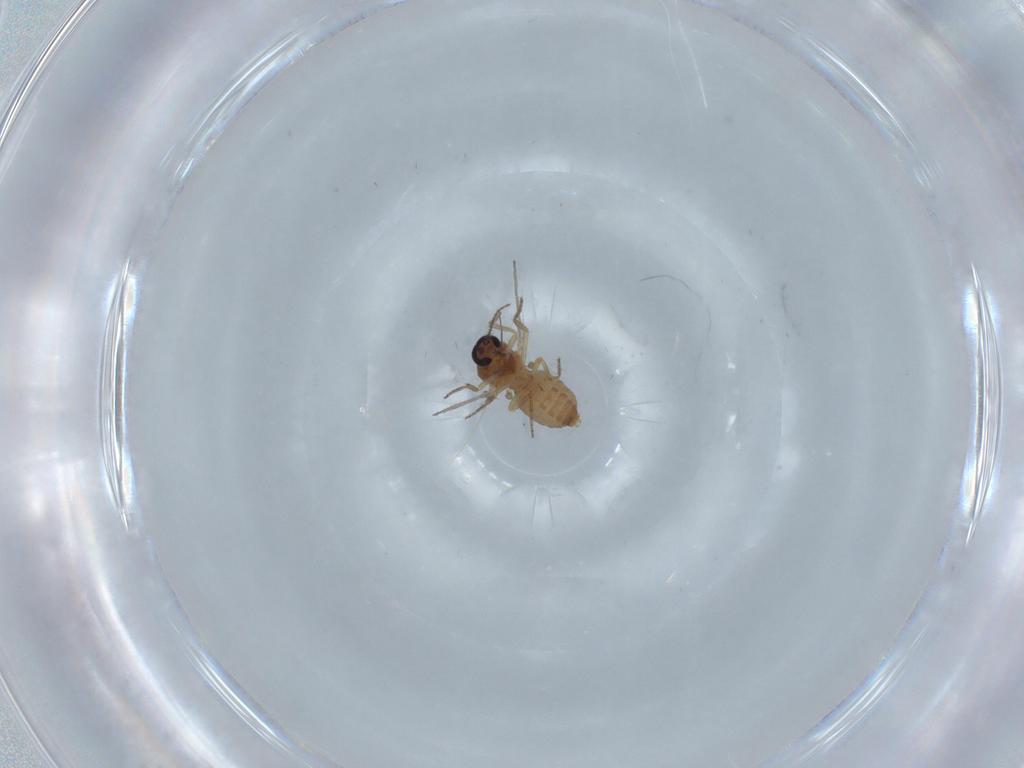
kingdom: Animalia
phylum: Arthropoda
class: Insecta
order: Diptera
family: Ceratopogonidae
